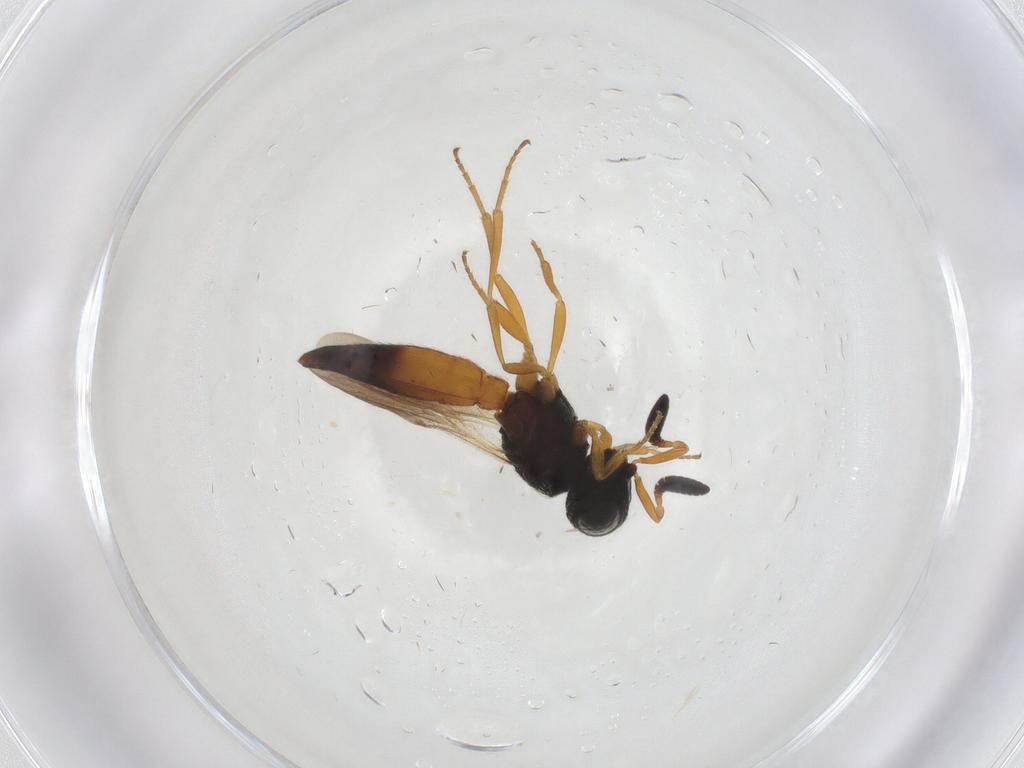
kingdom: Animalia
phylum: Arthropoda
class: Insecta
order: Hymenoptera
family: Scelionidae
